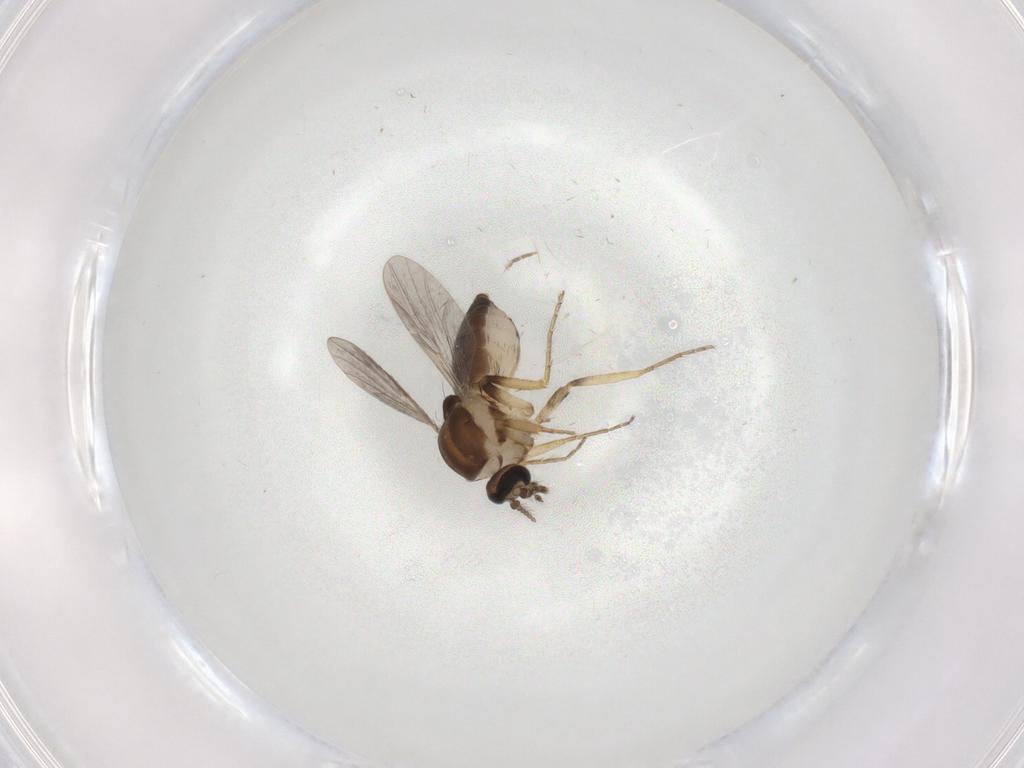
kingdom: Animalia
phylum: Arthropoda
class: Insecta
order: Diptera
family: Ceratopogonidae
